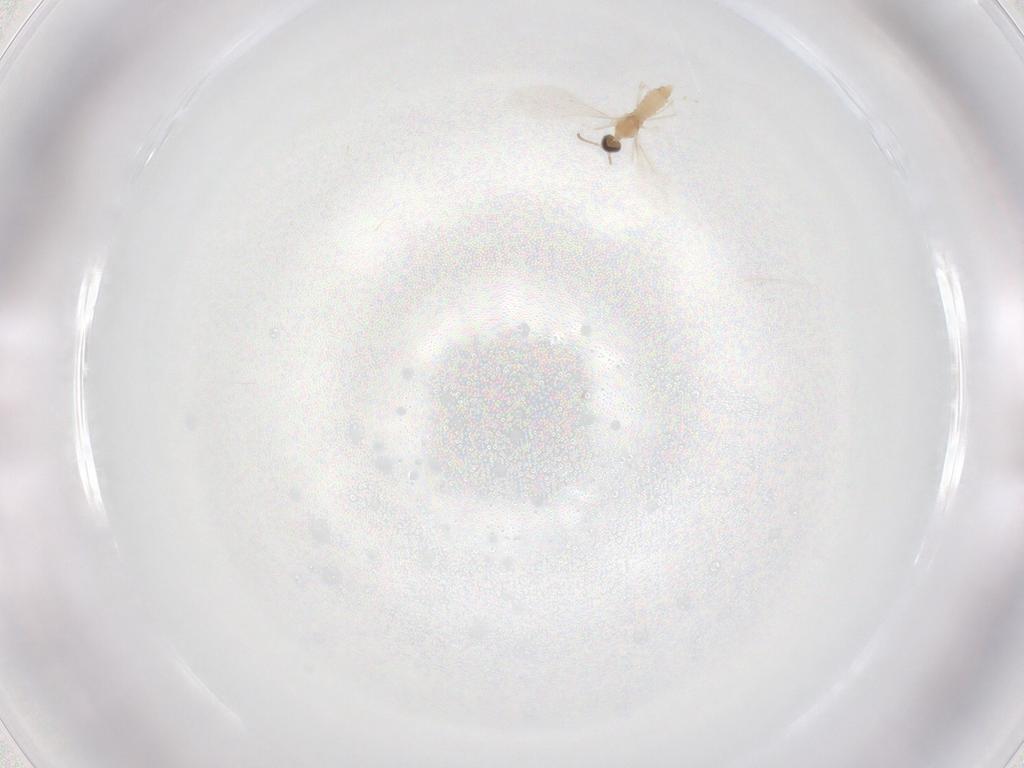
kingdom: Animalia
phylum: Arthropoda
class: Insecta
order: Diptera
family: Cecidomyiidae
